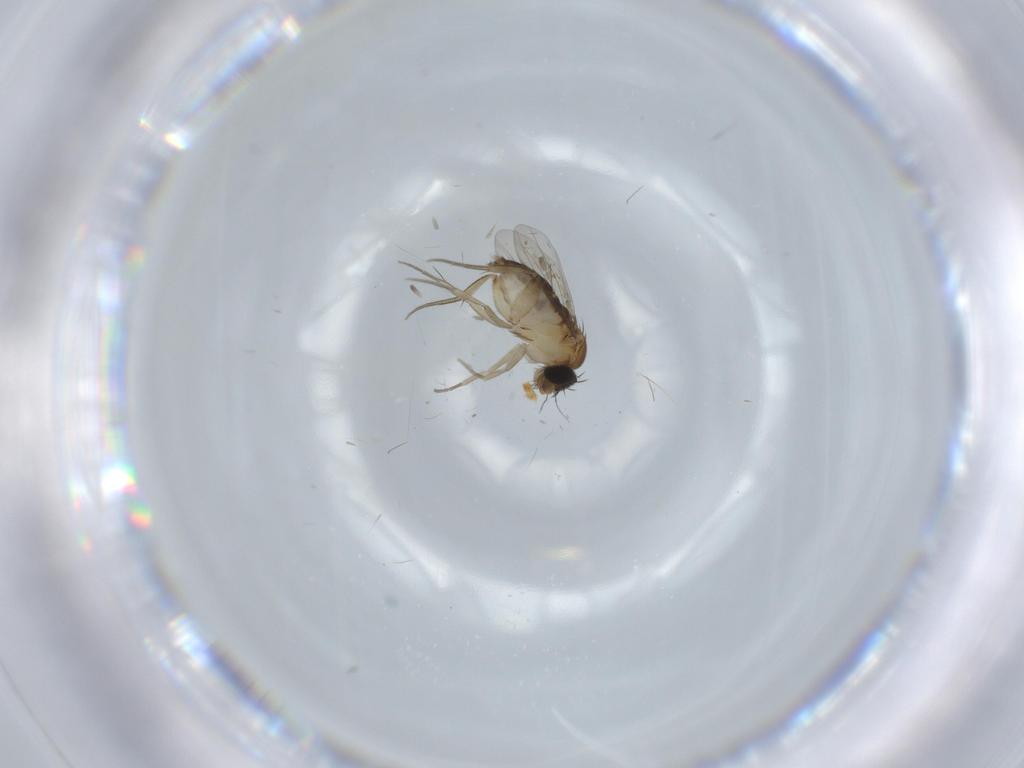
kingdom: Animalia
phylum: Arthropoda
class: Insecta
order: Diptera
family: Phoridae
